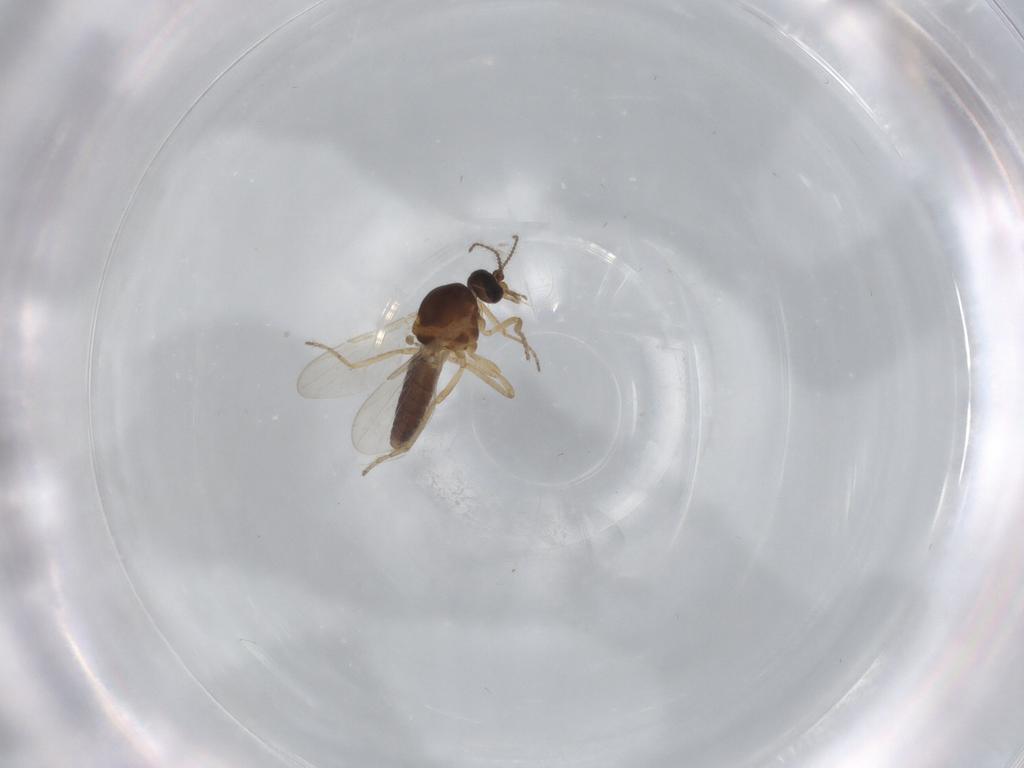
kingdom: Animalia
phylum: Arthropoda
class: Insecta
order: Diptera
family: Ceratopogonidae
